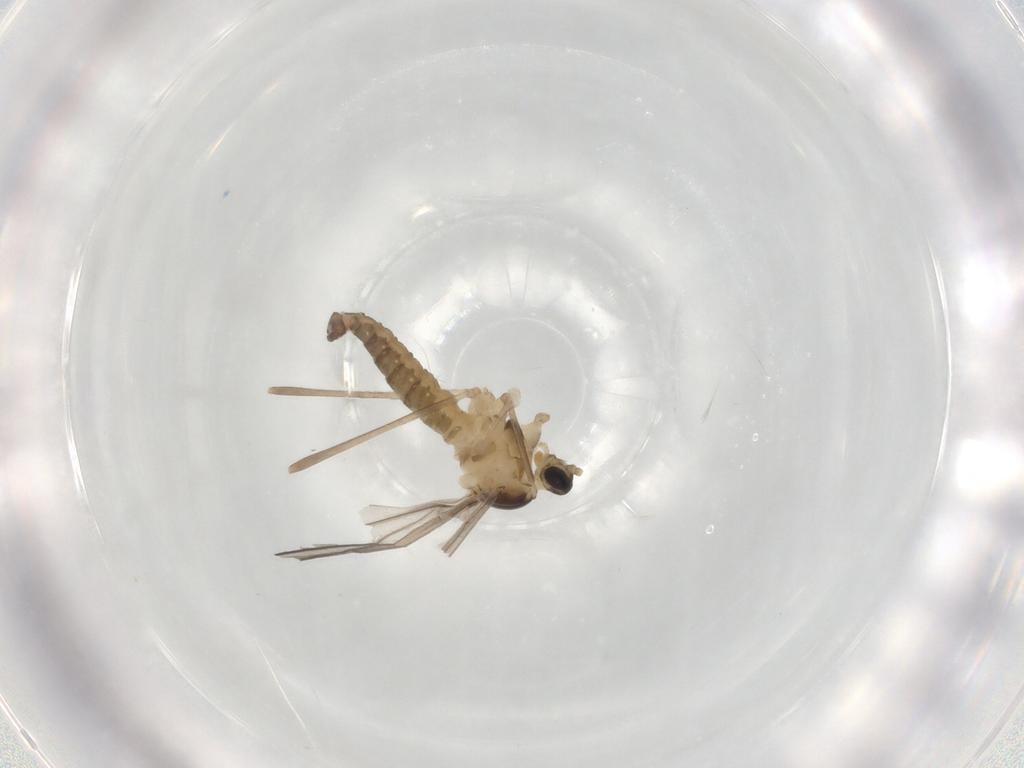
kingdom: Animalia
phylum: Arthropoda
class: Insecta
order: Diptera
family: Cecidomyiidae
